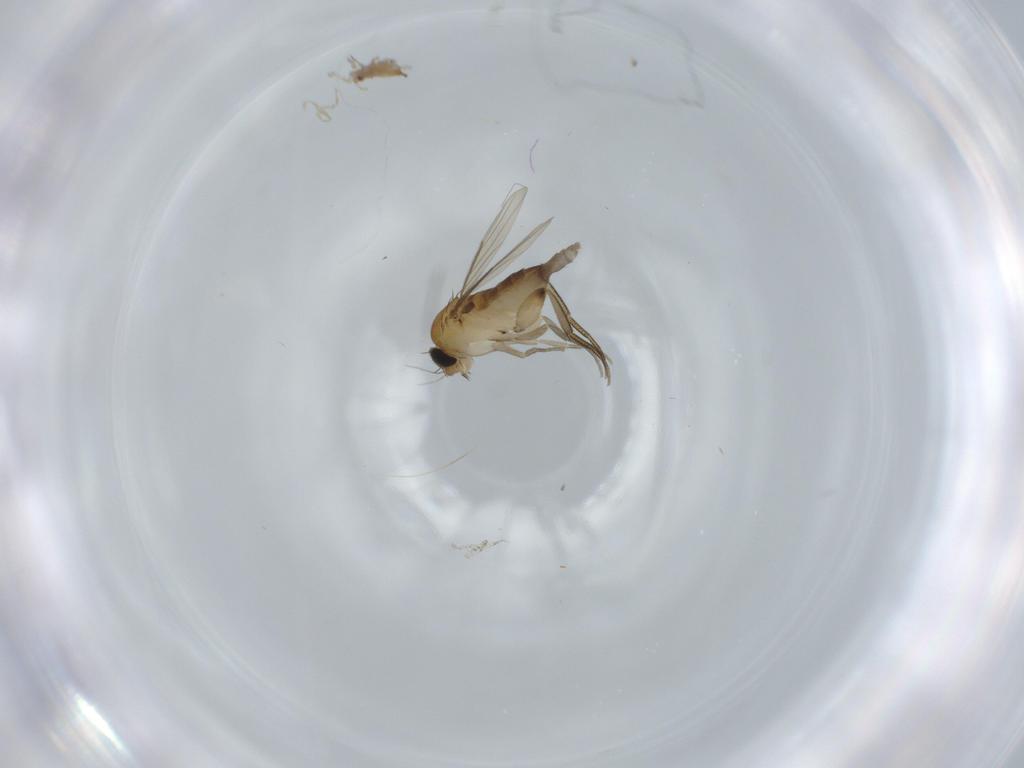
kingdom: Animalia
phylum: Arthropoda
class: Insecta
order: Diptera
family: Phoridae
